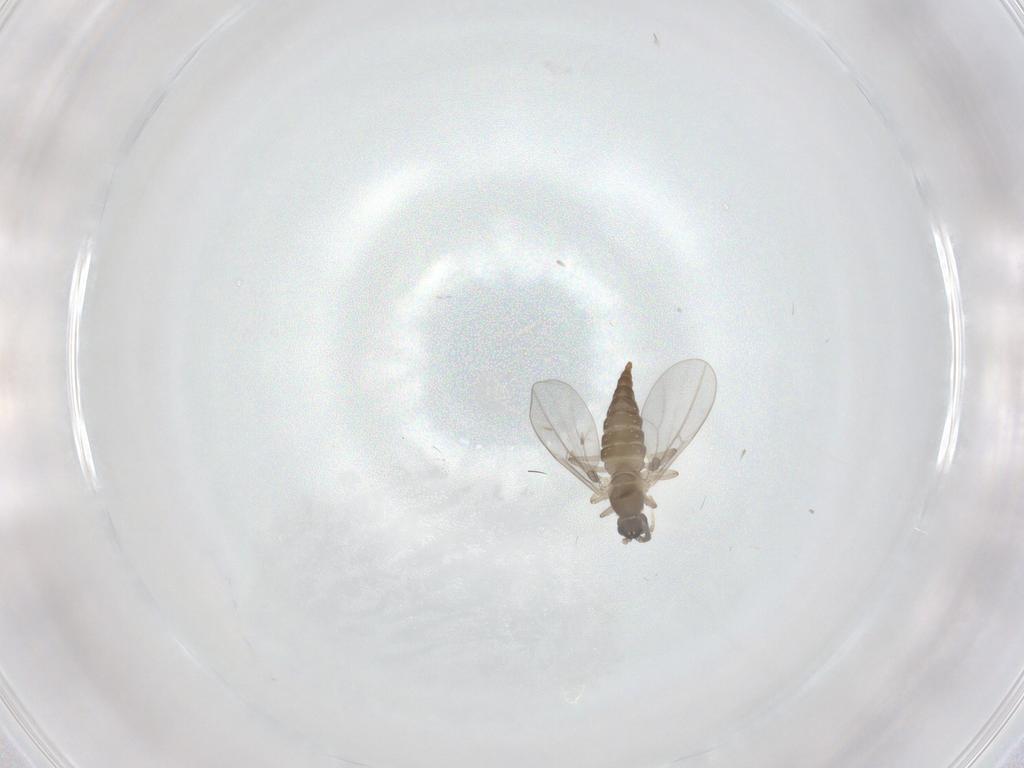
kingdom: Animalia
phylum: Arthropoda
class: Insecta
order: Diptera
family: Cecidomyiidae
